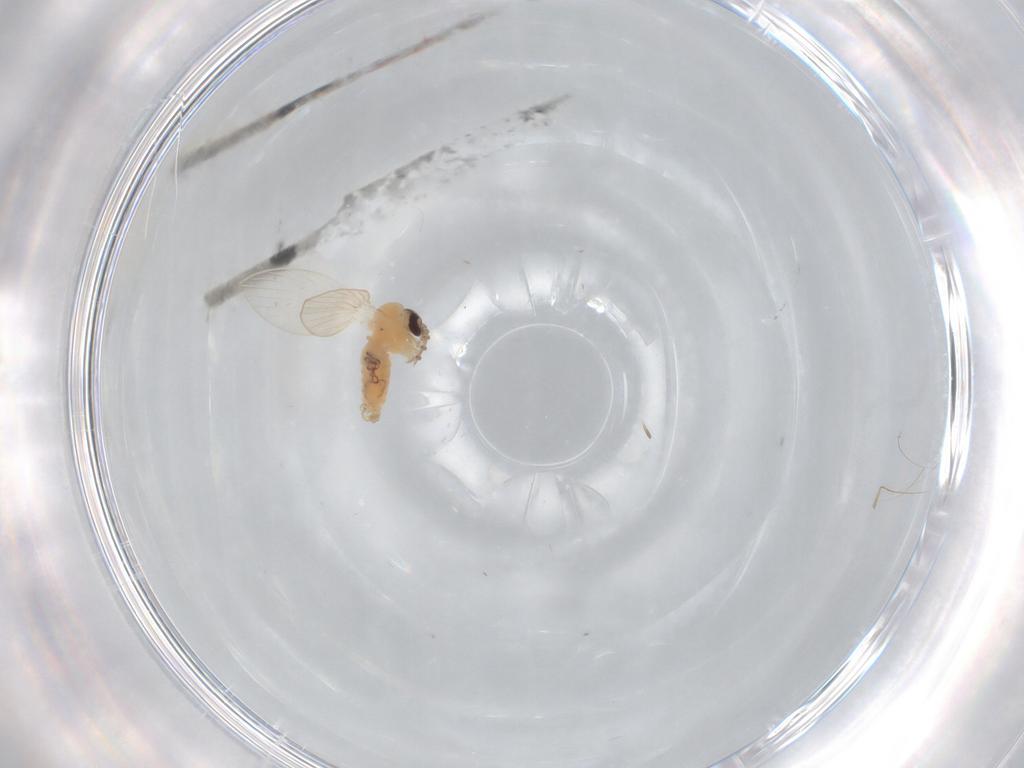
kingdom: Animalia
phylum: Arthropoda
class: Insecta
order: Diptera
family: Psychodidae
